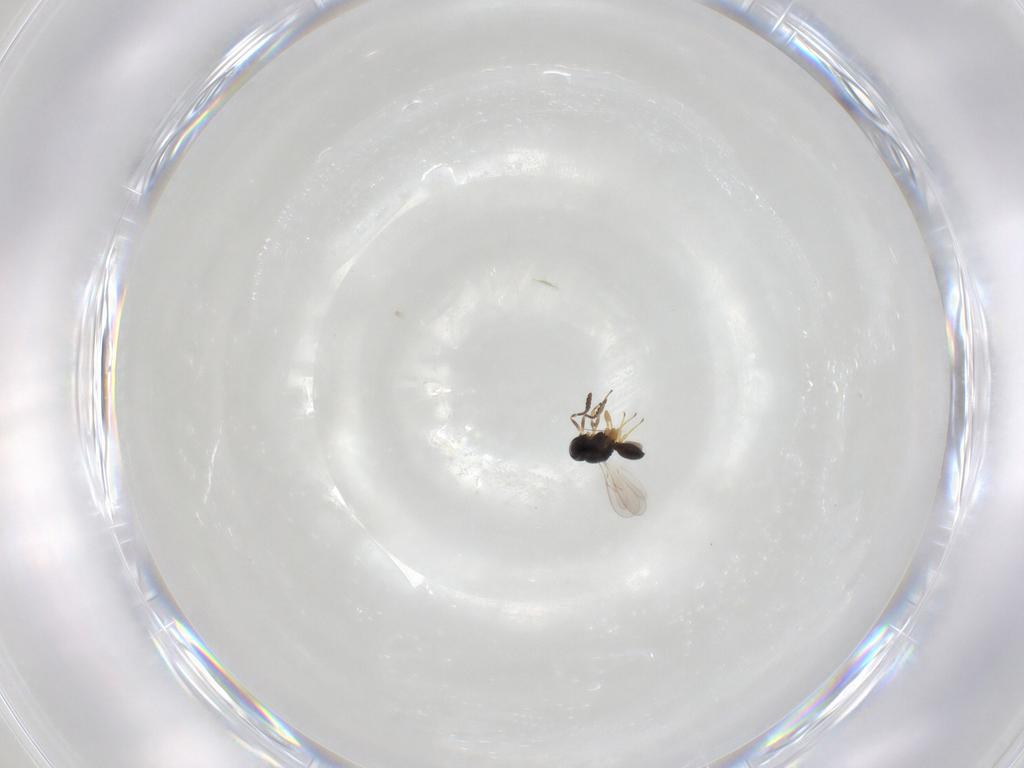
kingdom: Animalia
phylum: Arthropoda
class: Insecta
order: Hymenoptera
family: Scelionidae
